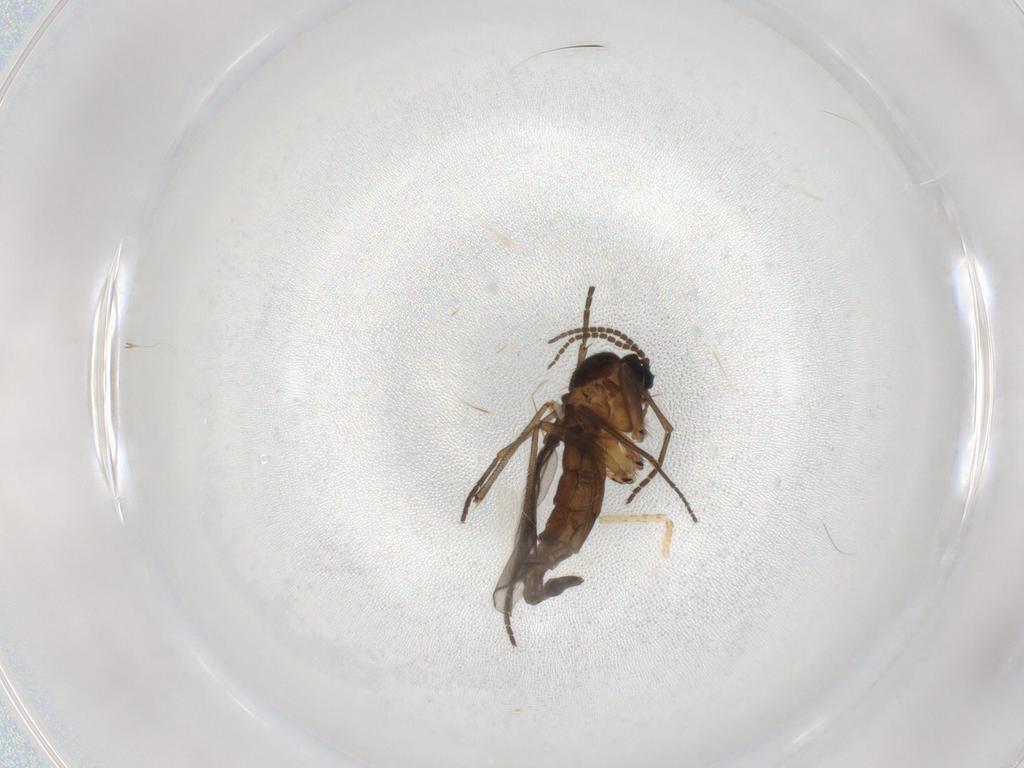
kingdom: Animalia
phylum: Arthropoda
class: Insecta
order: Diptera
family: Sciaridae
